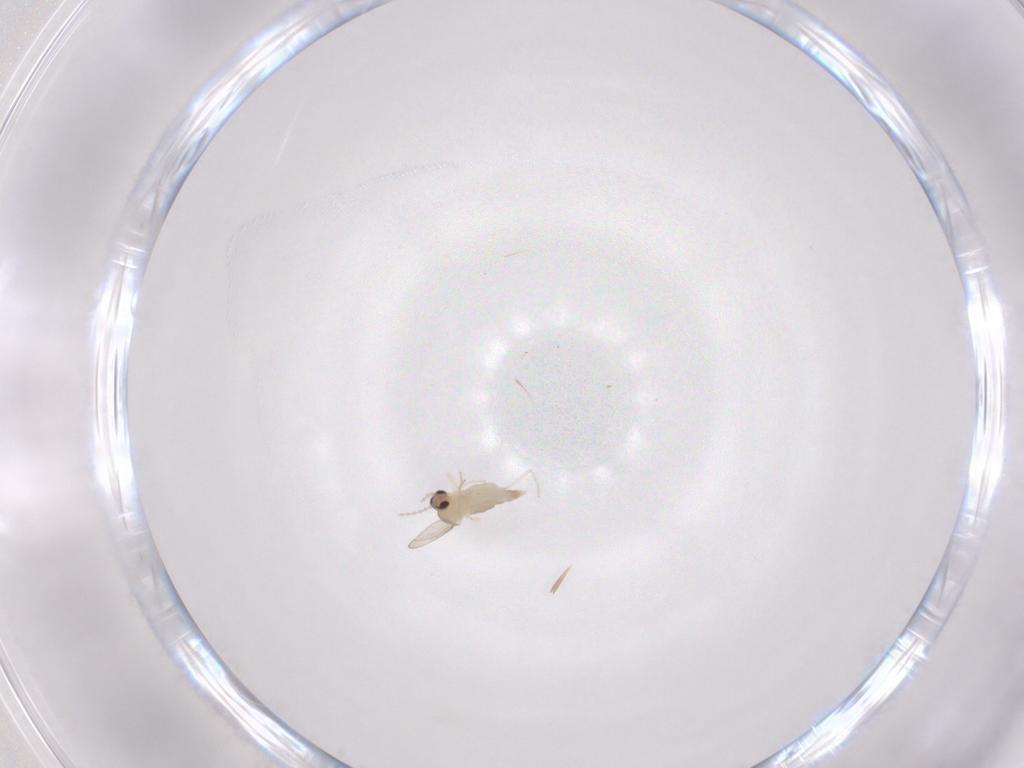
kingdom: Animalia
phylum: Arthropoda
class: Insecta
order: Diptera
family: Cecidomyiidae
